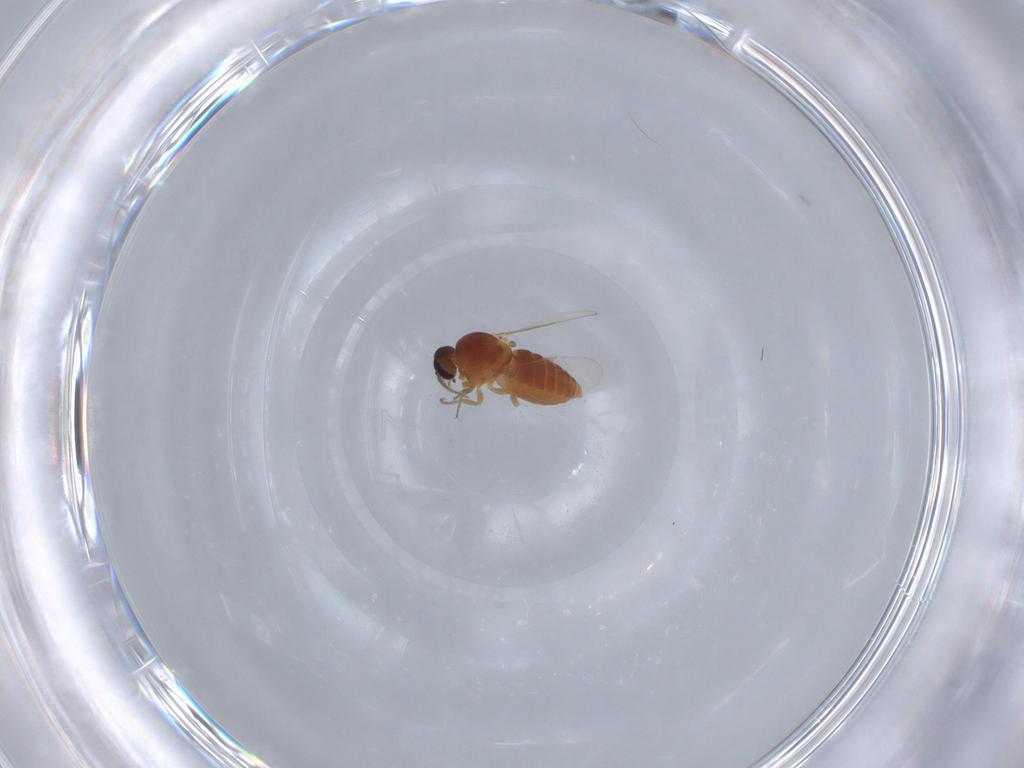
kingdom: Animalia
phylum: Arthropoda
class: Insecta
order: Diptera
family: Ceratopogonidae
